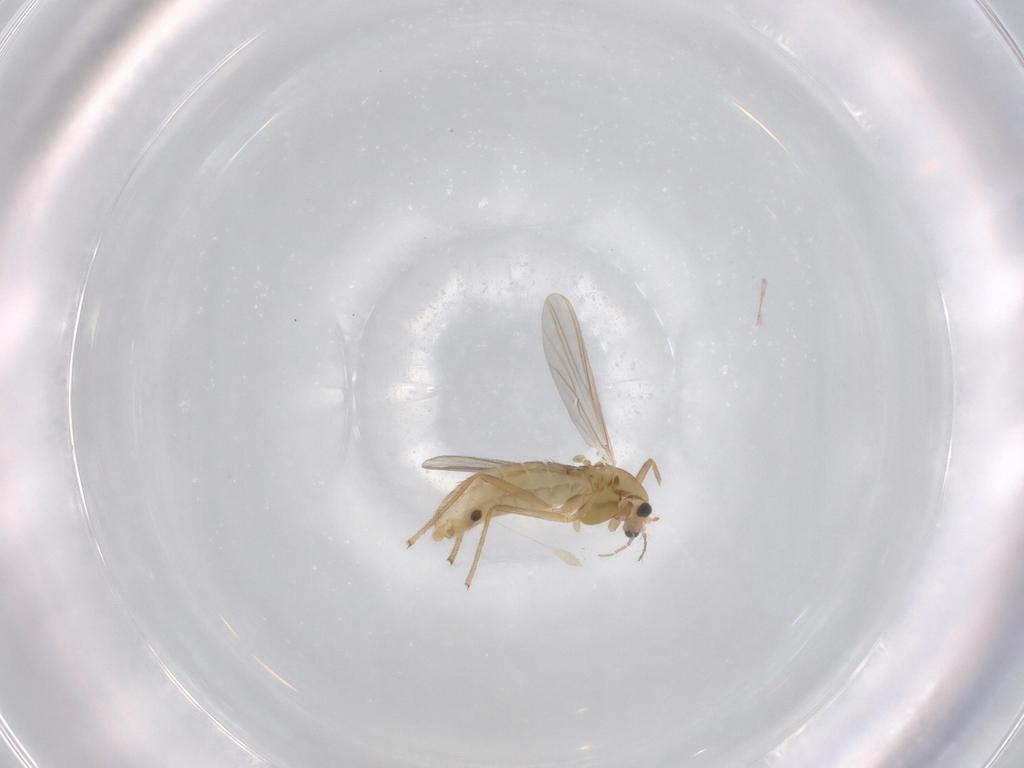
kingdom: Animalia
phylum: Arthropoda
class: Insecta
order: Diptera
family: Chironomidae
